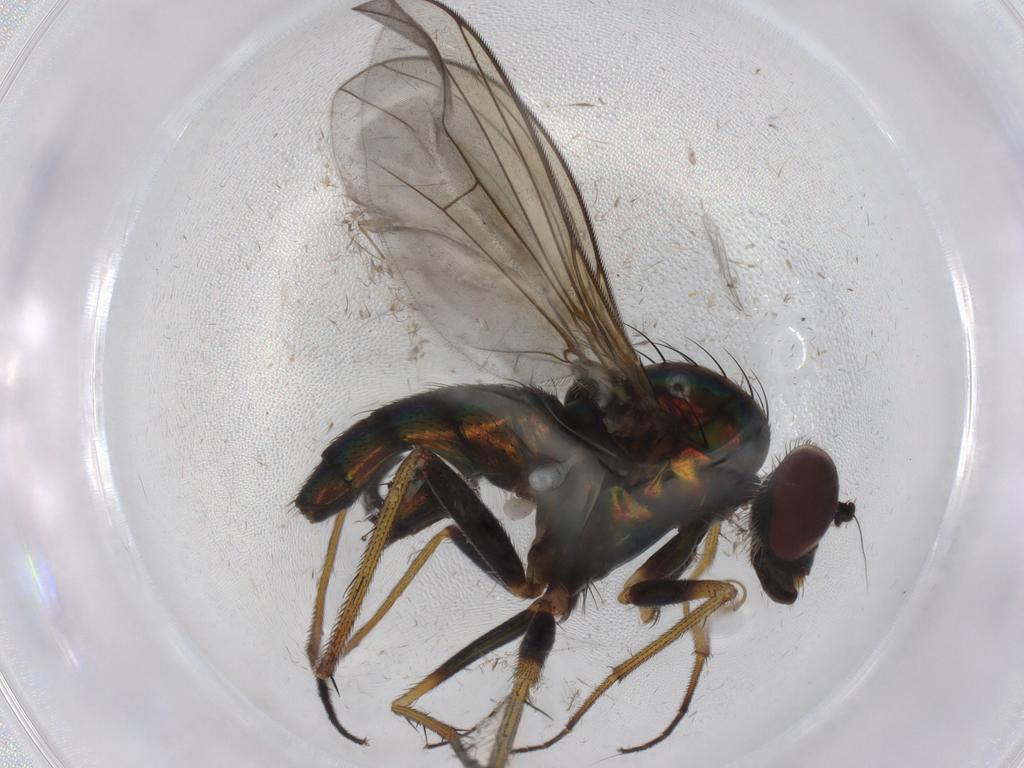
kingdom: Animalia
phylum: Arthropoda
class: Insecta
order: Diptera
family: Dolichopodidae
